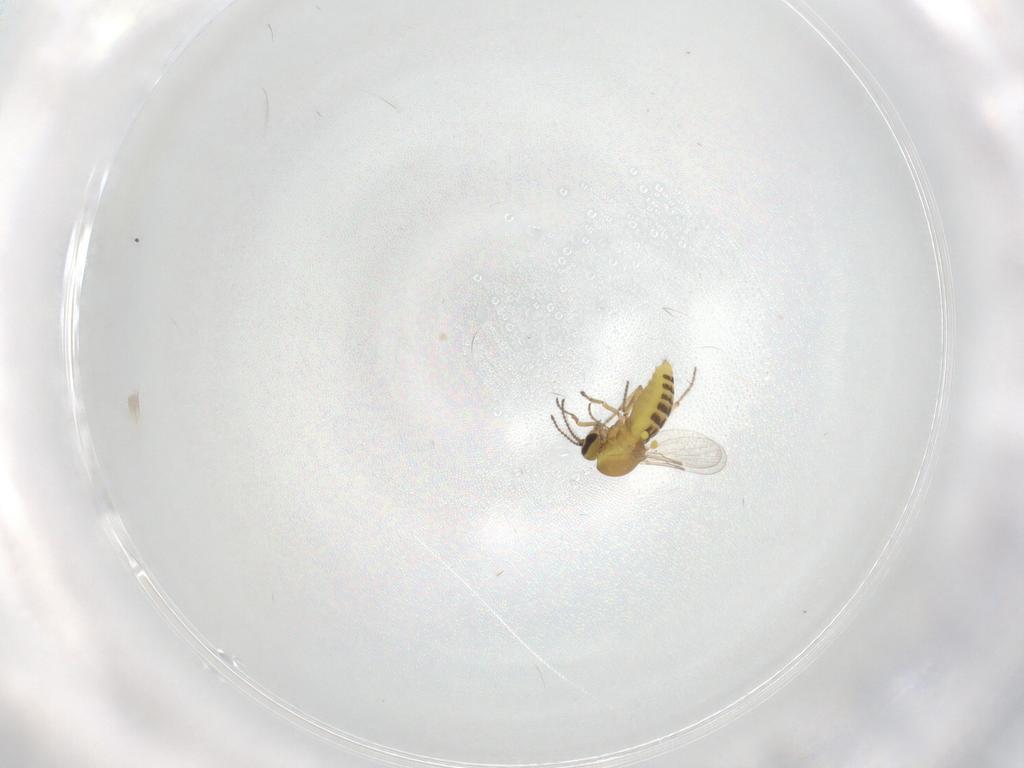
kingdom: Animalia
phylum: Arthropoda
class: Insecta
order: Diptera
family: Ceratopogonidae
